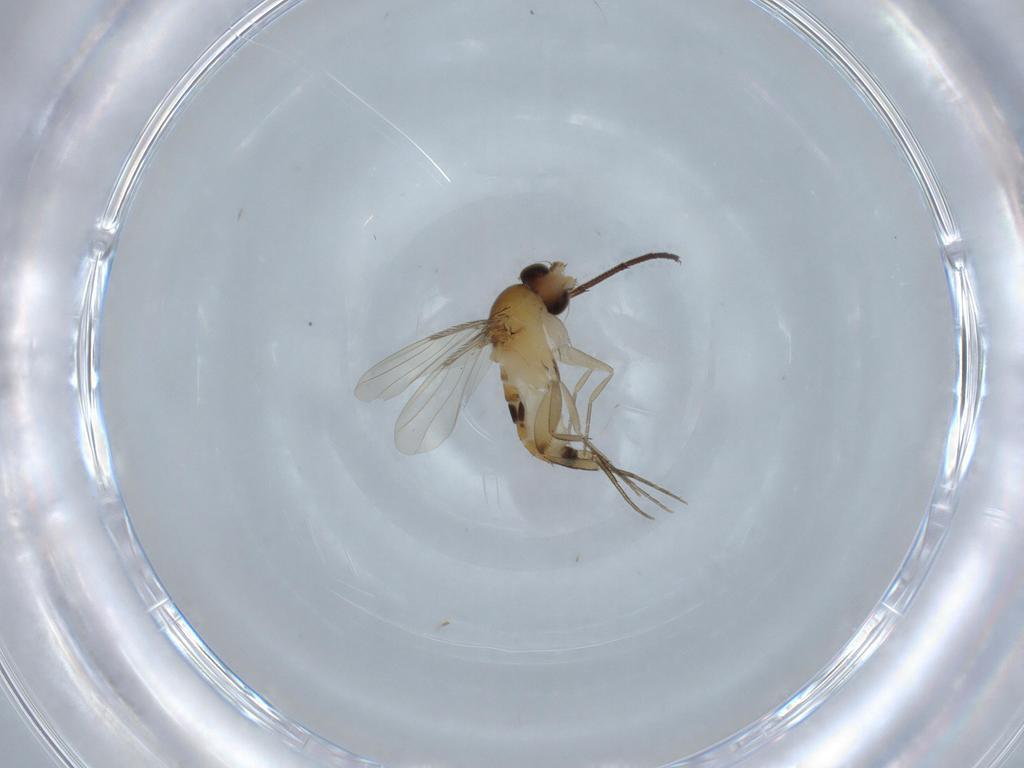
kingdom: Animalia
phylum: Arthropoda
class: Insecta
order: Diptera
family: Phoridae
